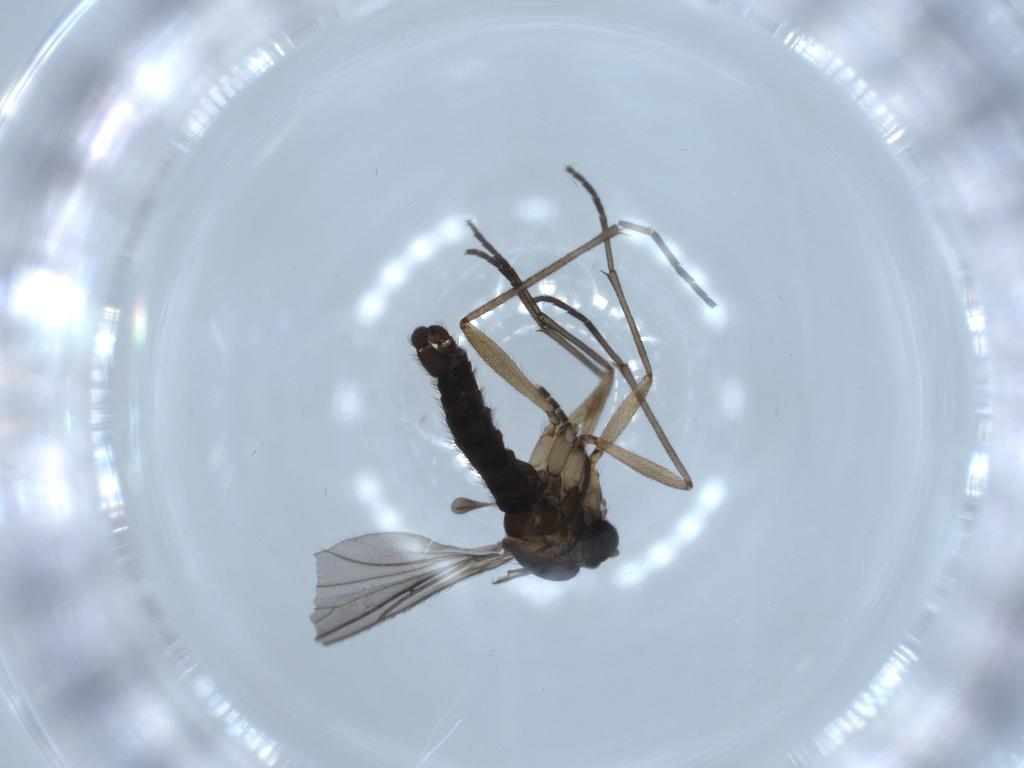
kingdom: Animalia
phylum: Arthropoda
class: Insecta
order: Diptera
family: Sciaridae
